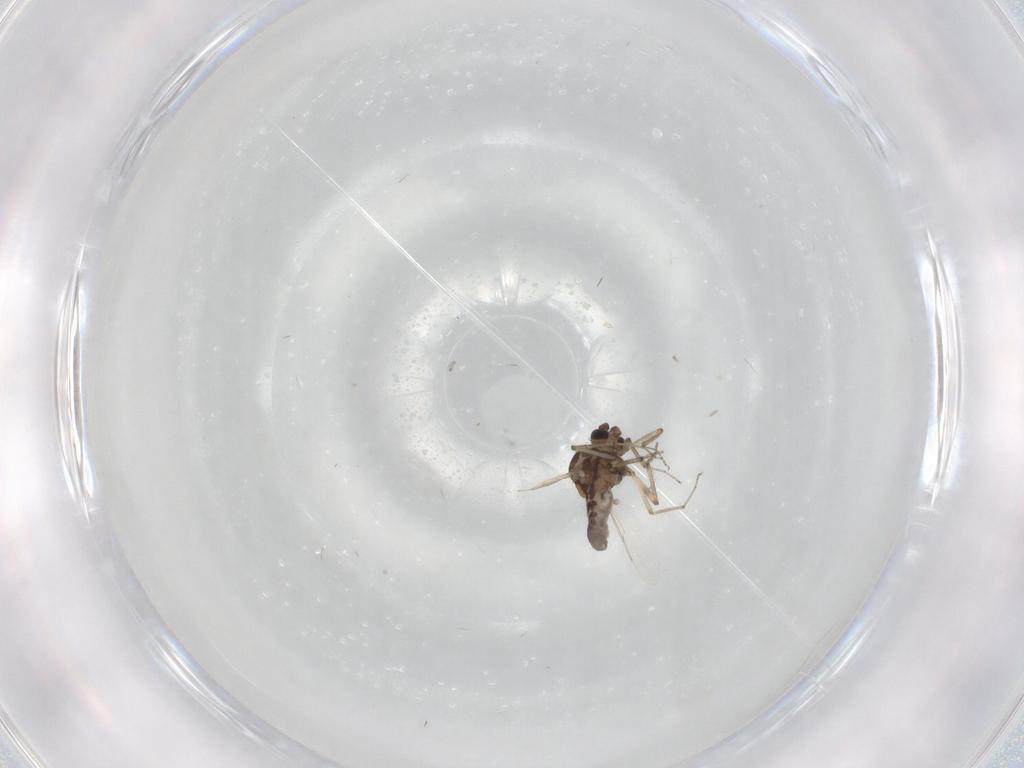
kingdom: Animalia
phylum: Arthropoda
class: Insecta
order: Diptera
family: Ceratopogonidae
